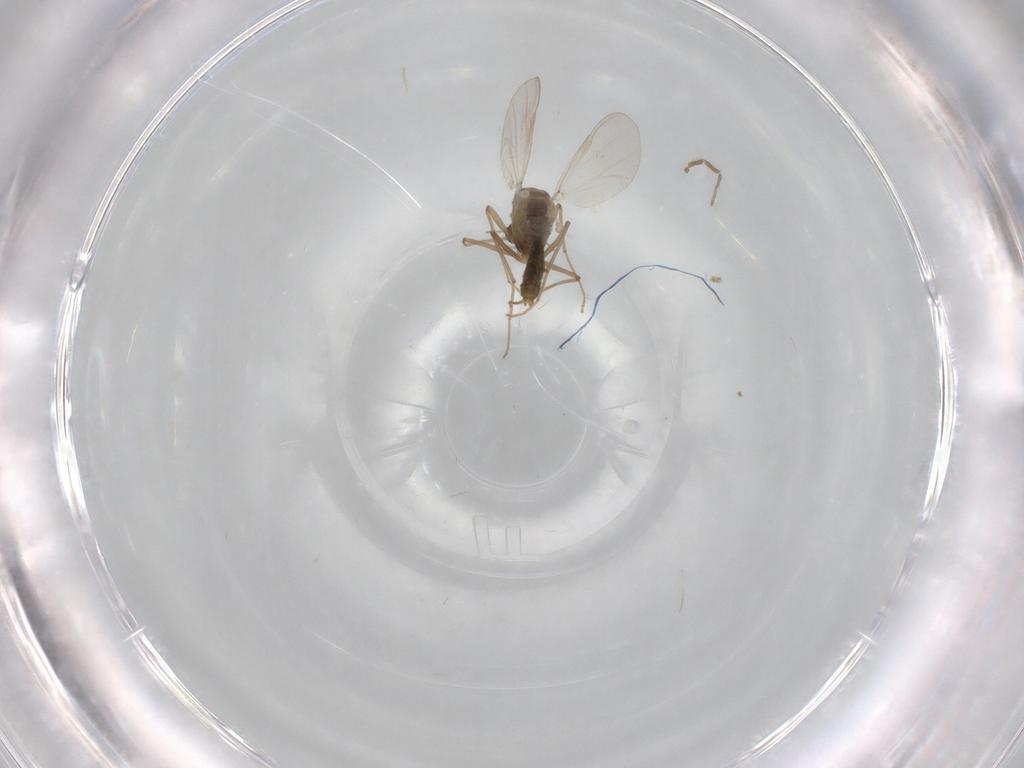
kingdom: Animalia
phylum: Arthropoda
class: Insecta
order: Diptera
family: Chironomidae
